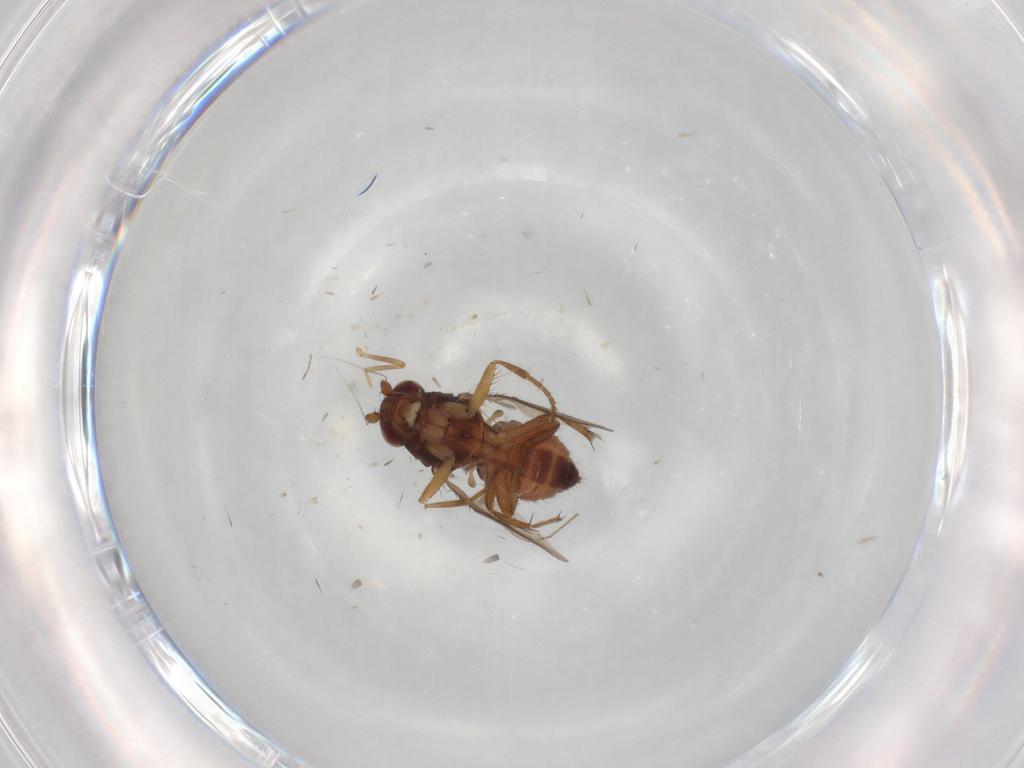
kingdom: Animalia
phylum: Arthropoda
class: Insecta
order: Diptera
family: Ceratopogonidae
